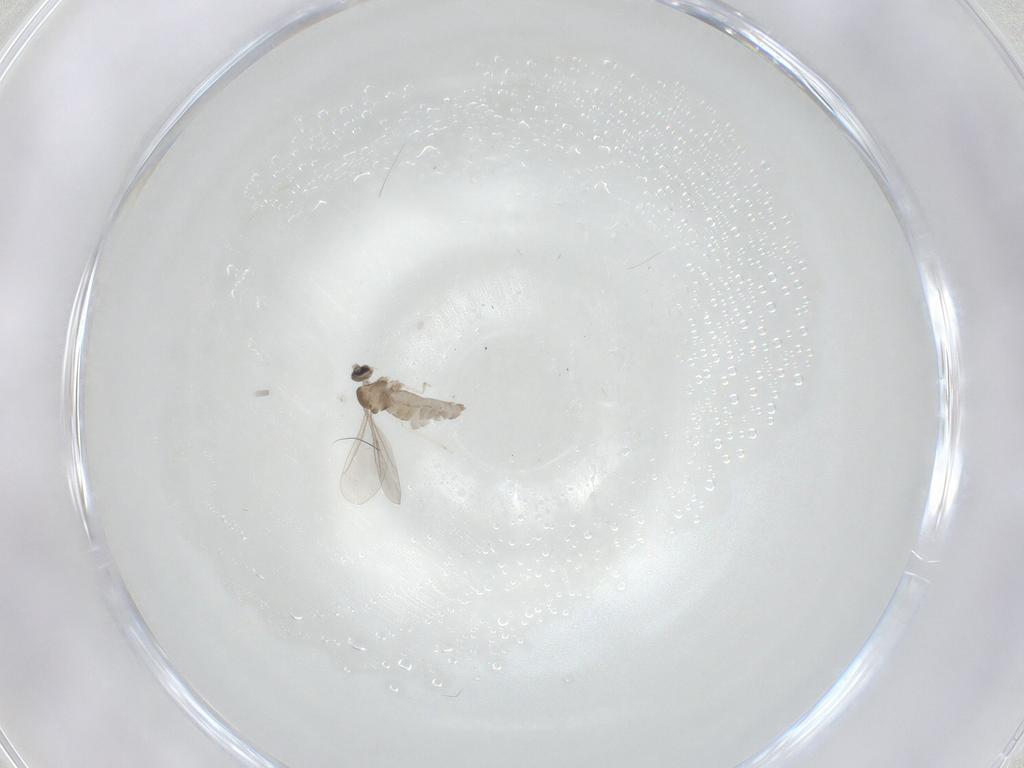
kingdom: Animalia
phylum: Arthropoda
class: Insecta
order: Diptera
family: Cecidomyiidae
